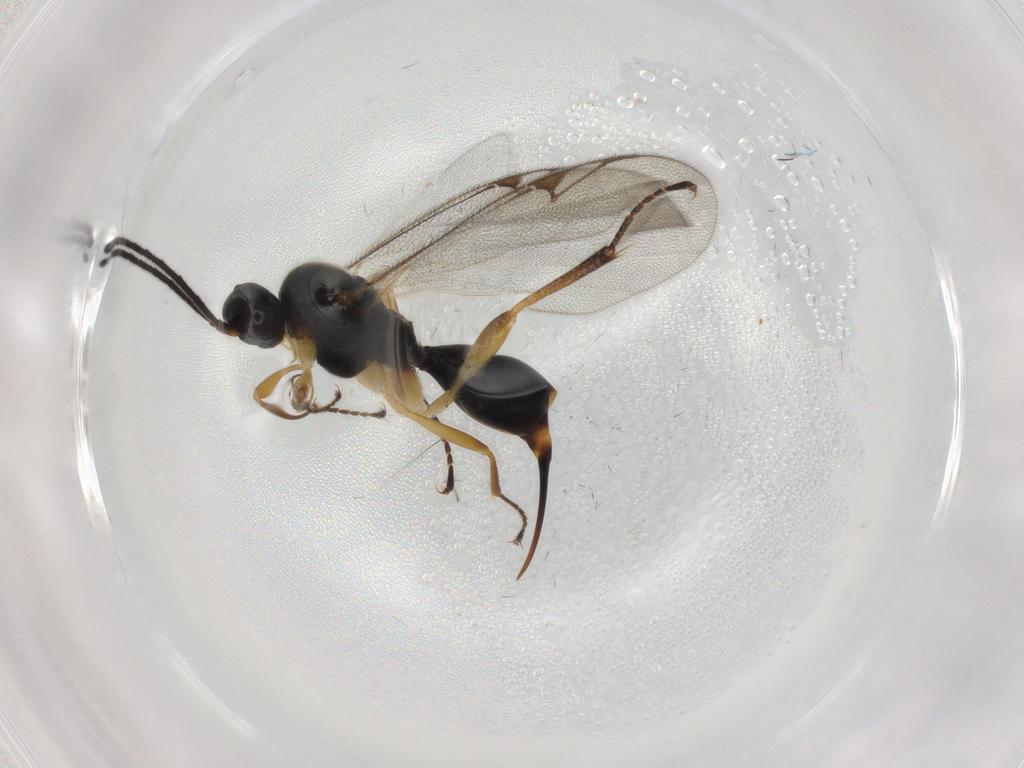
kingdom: Animalia
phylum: Arthropoda
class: Insecta
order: Hymenoptera
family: Proctotrupidae
